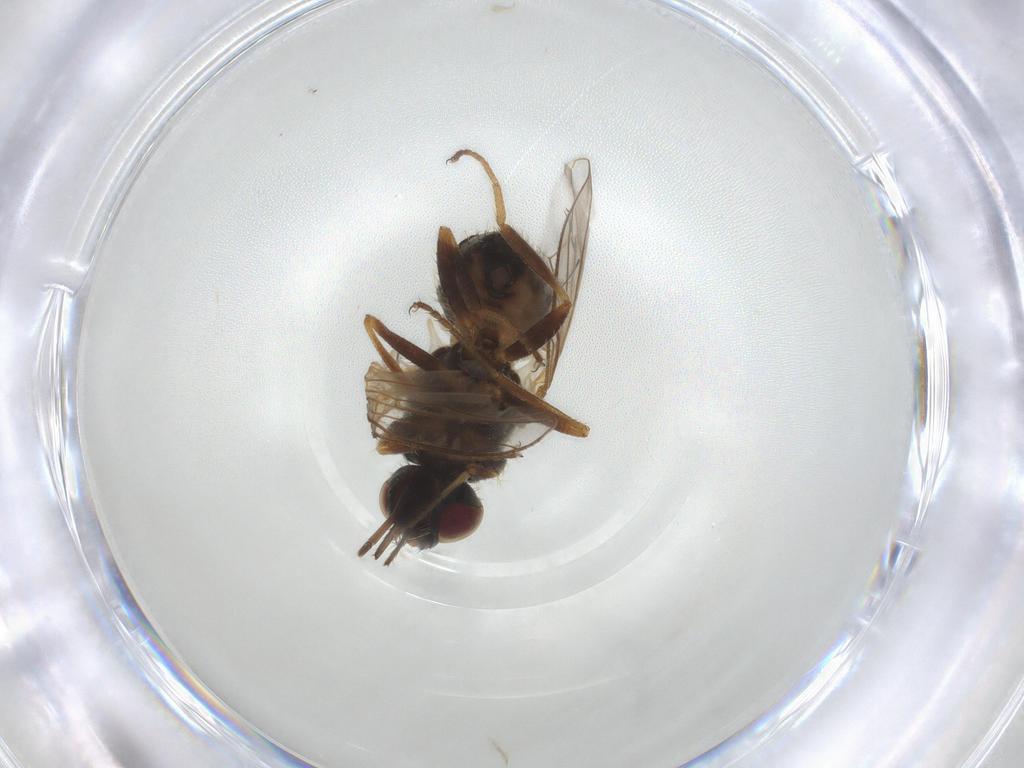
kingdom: Animalia
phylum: Arthropoda
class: Insecta
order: Diptera
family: Muscidae
